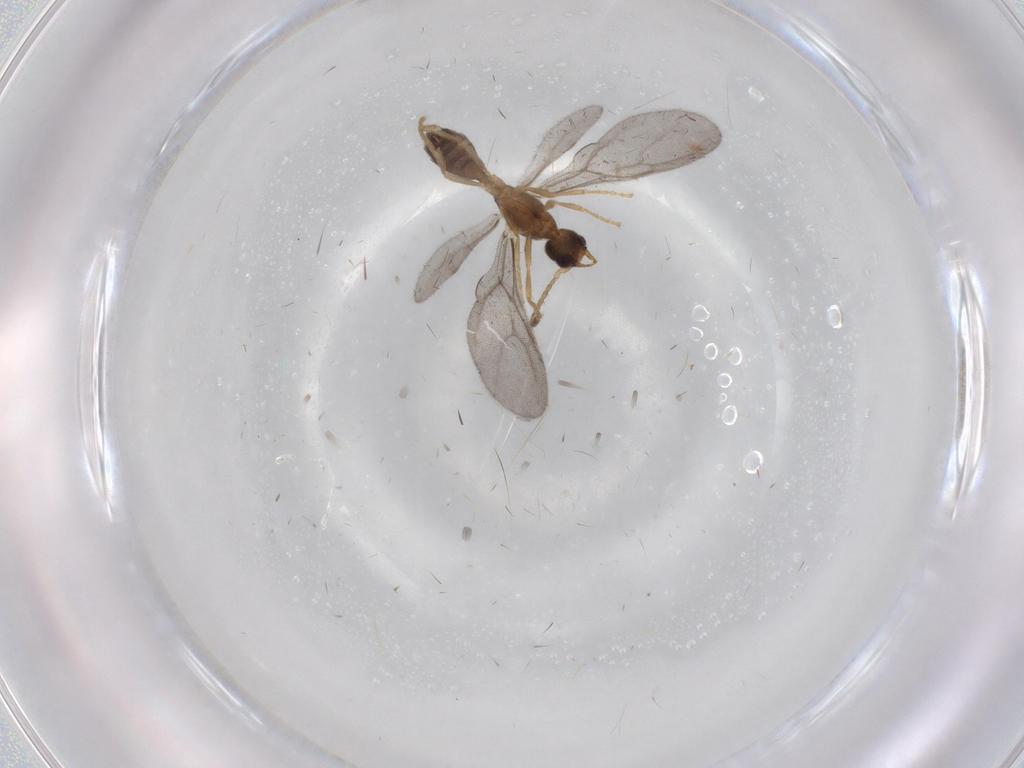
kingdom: Animalia
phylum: Arthropoda
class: Insecta
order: Hymenoptera
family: Formicidae
